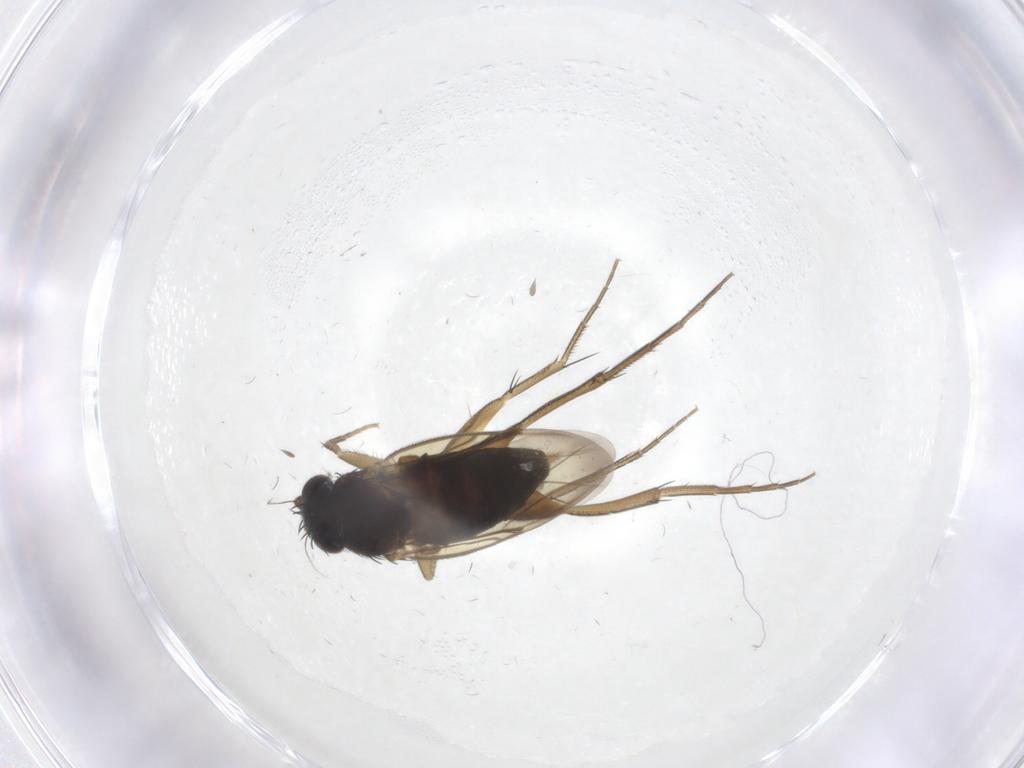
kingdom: Animalia
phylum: Arthropoda
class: Insecta
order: Diptera
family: Phoridae
